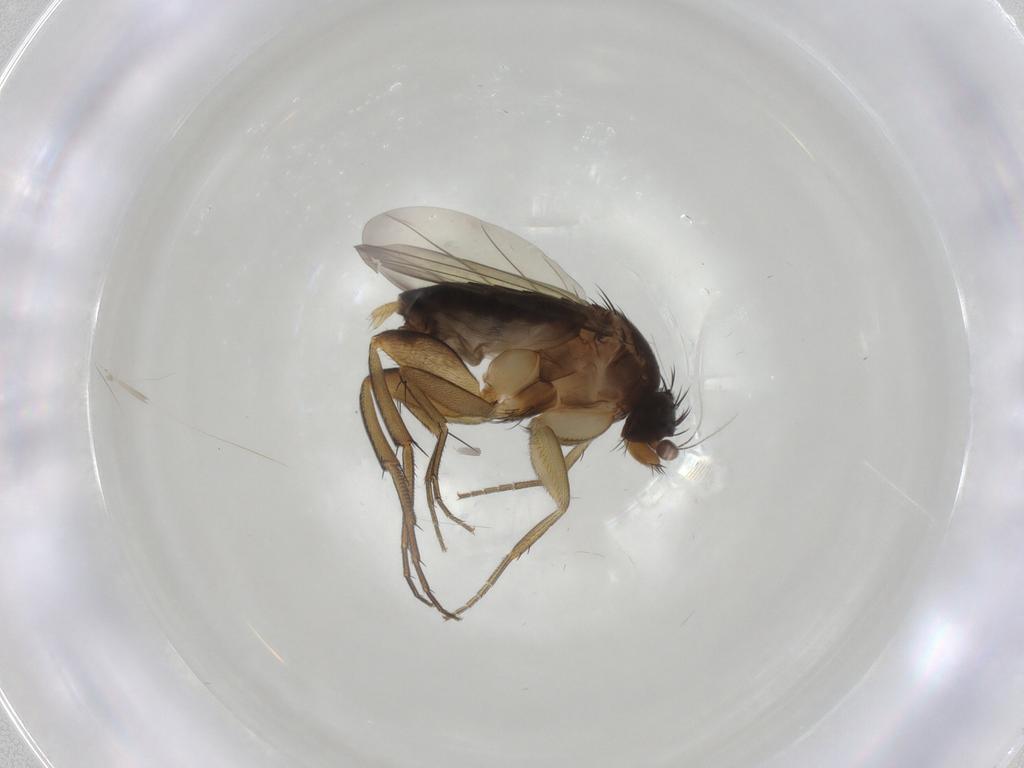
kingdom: Animalia
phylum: Arthropoda
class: Insecta
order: Diptera
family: Phoridae
